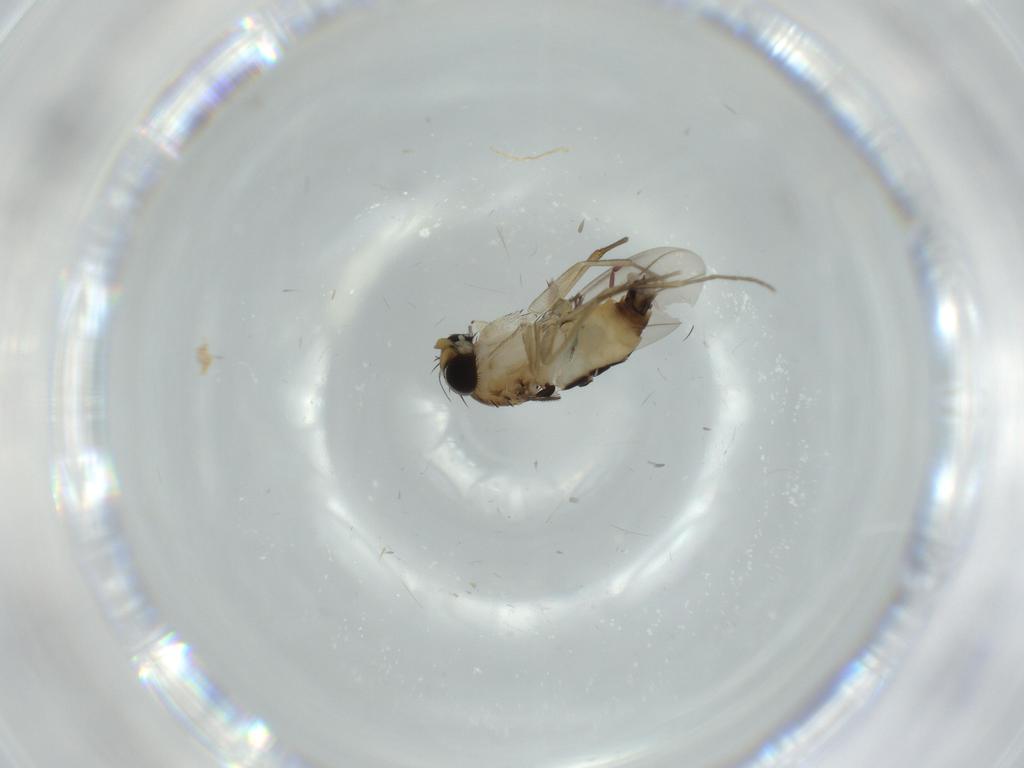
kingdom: Animalia
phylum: Arthropoda
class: Insecta
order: Diptera
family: Phoridae
